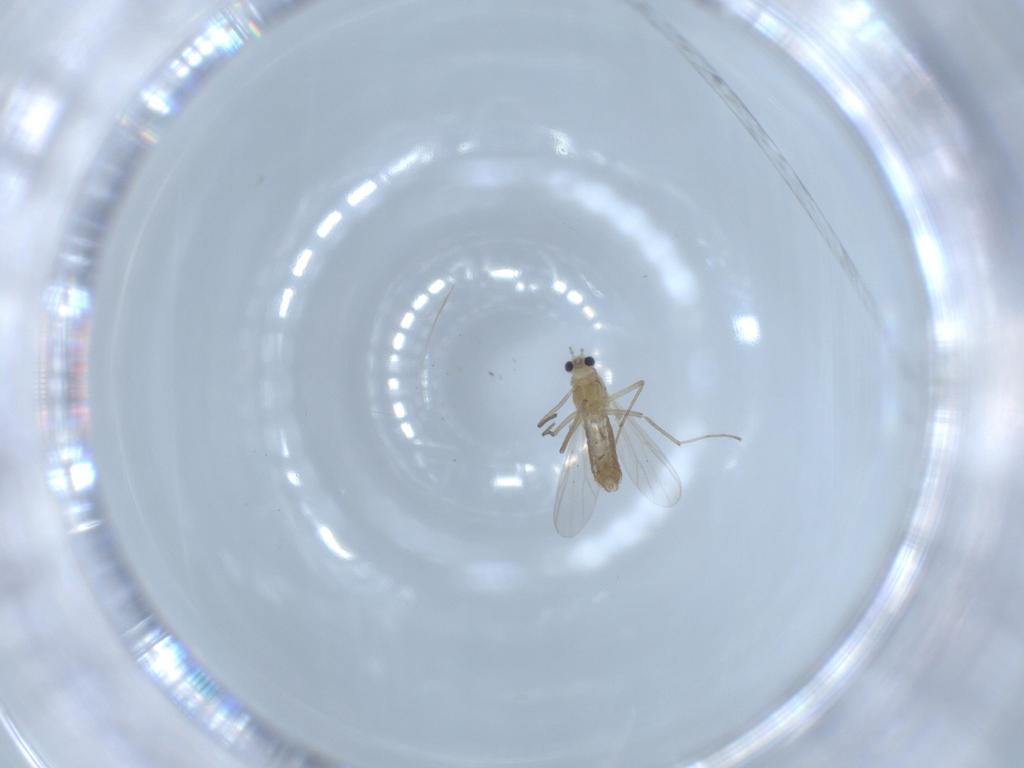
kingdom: Animalia
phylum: Arthropoda
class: Insecta
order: Diptera
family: Chironomidae
